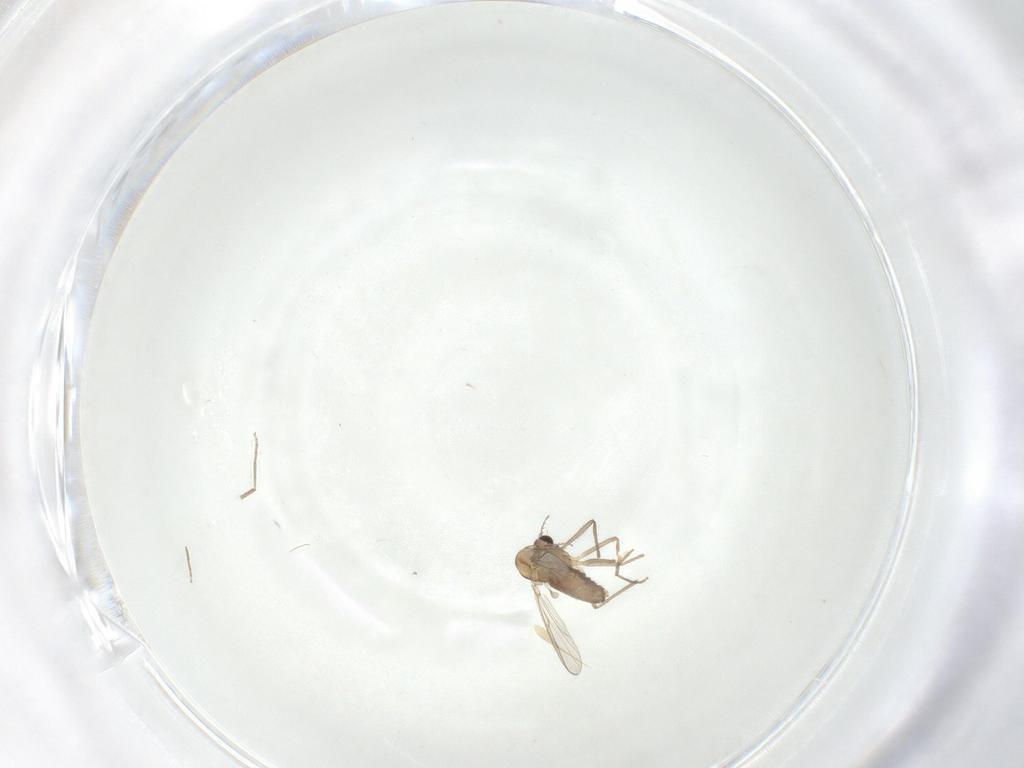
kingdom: Animalia
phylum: Arthropoda
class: Insecta
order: Diptera
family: Chironomidae
